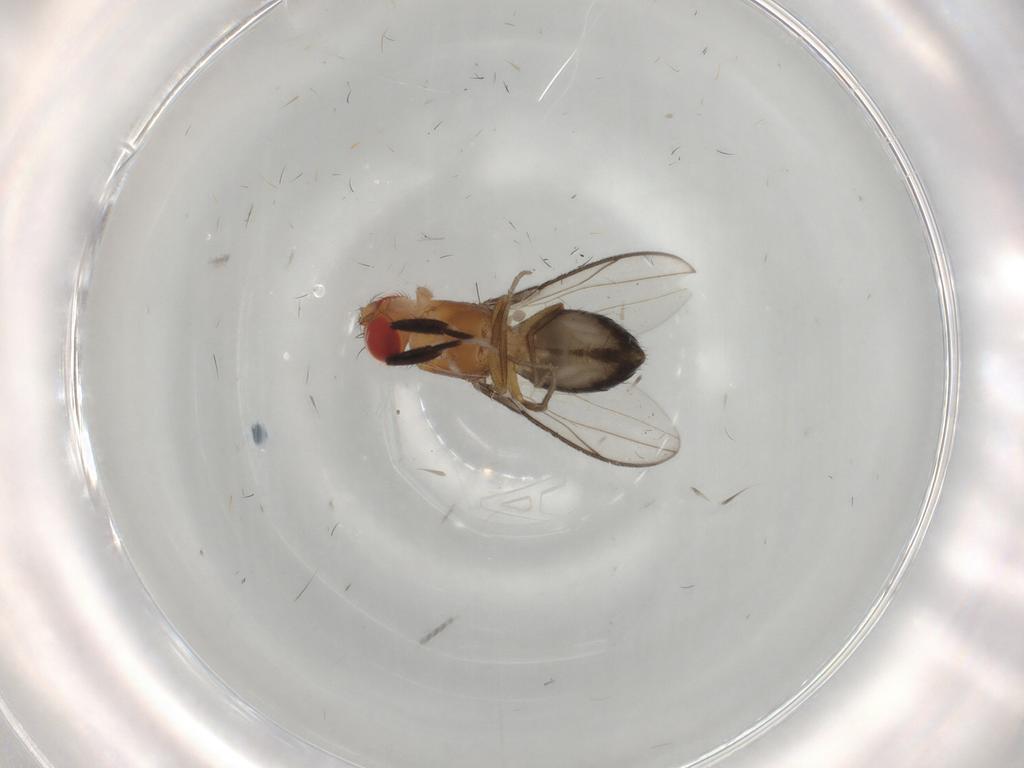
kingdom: Animalia
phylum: Arthropoda
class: Insecta
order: Diptera
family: Drosophilidae
